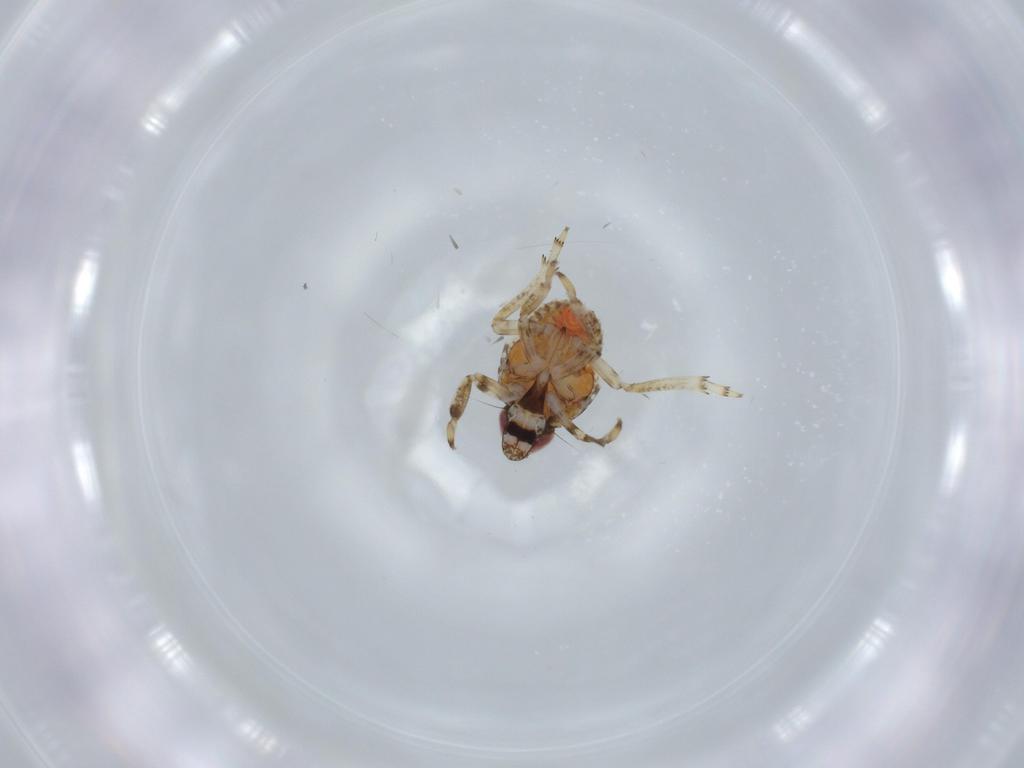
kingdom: Animalia
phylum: Arthropoda
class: Insecta
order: Hemiptera
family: Issidae
